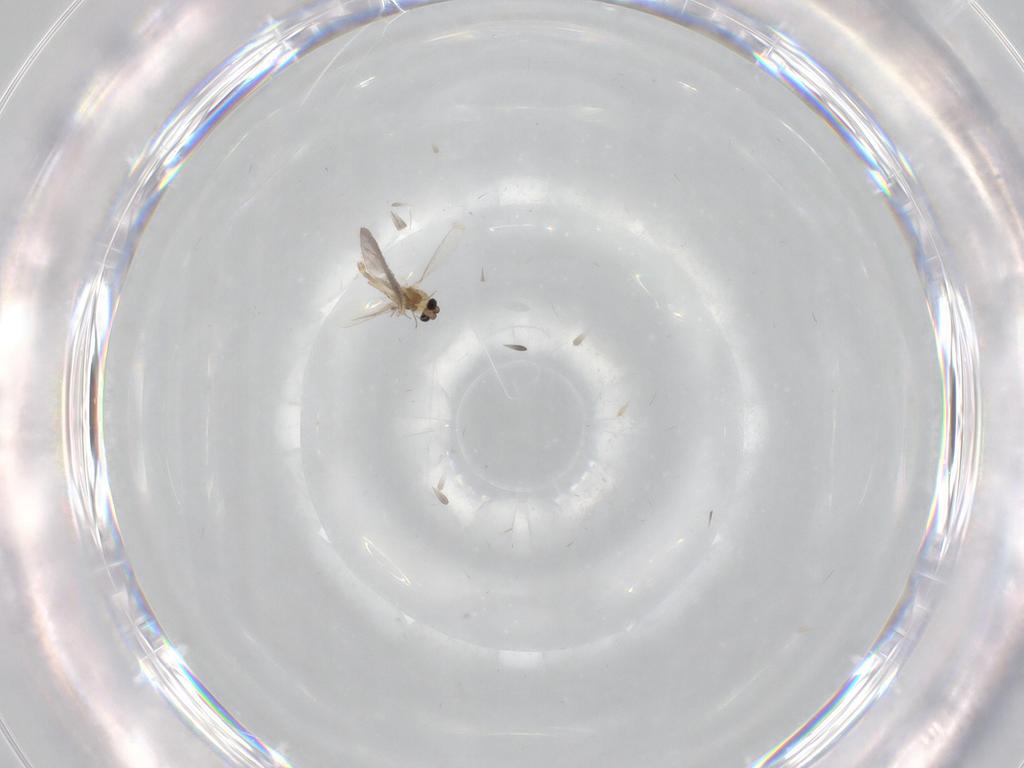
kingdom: Animalia
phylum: Arthropoda
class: Insecta
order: Diptera
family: Chironomidae
